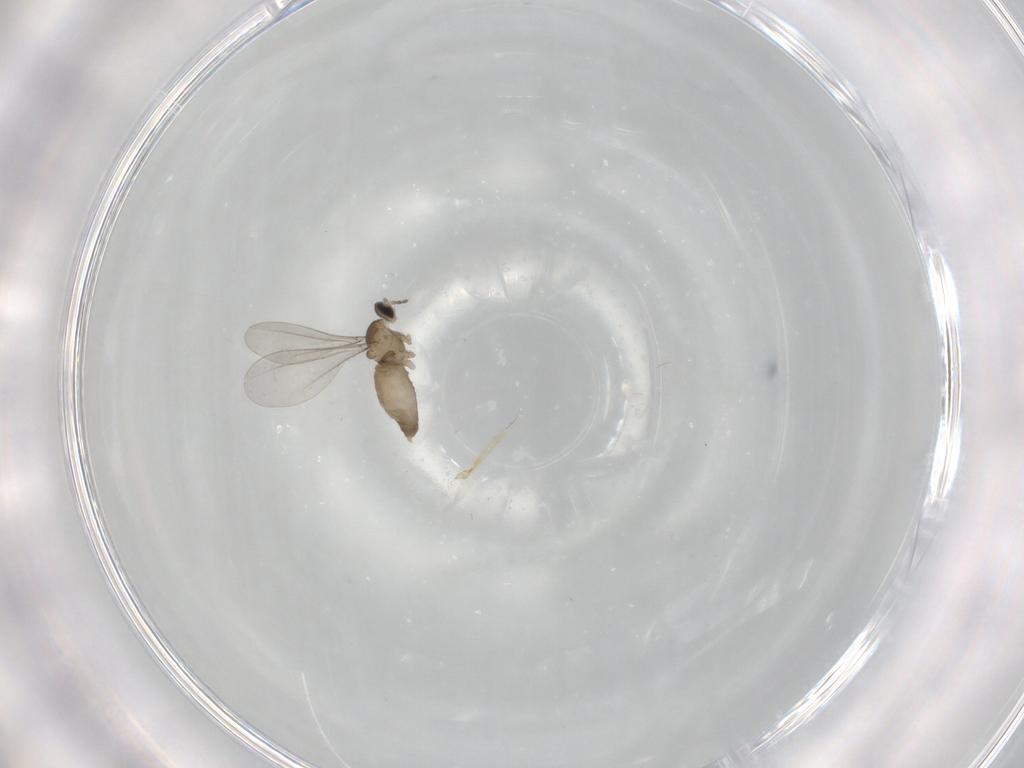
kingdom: Animalia
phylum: Arthropoda
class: Insecta
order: Diptera
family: Chironomidae
